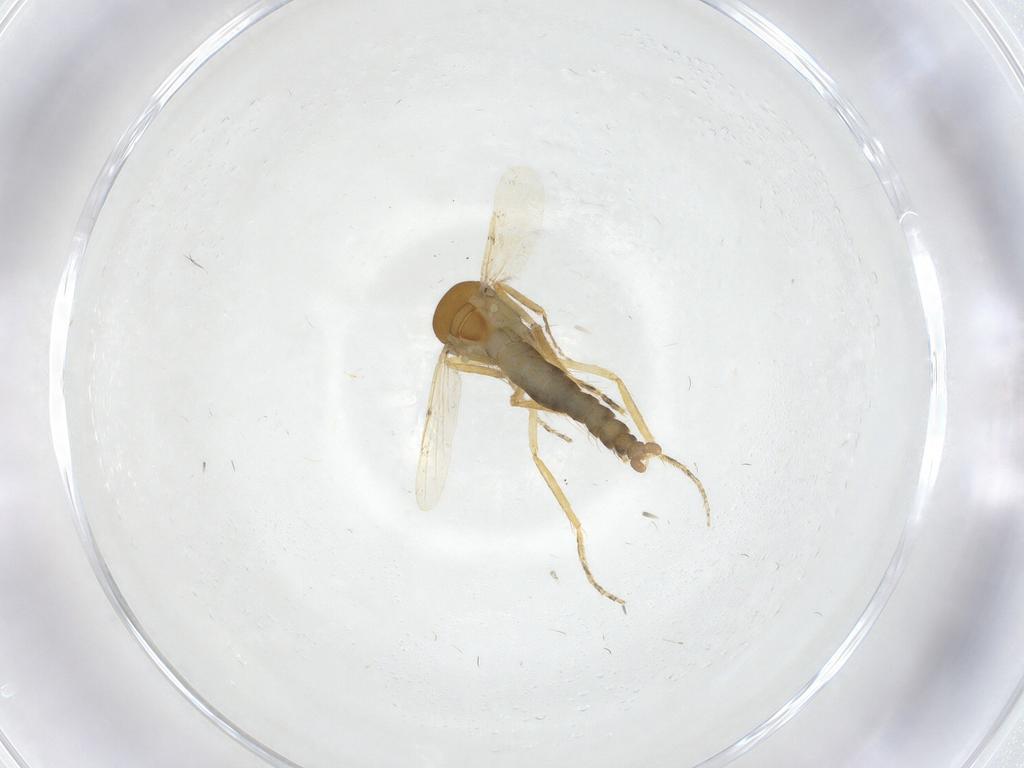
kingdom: Animalia
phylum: Arthropoda
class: Insecta
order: Diptera
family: Ceratopogonidae
